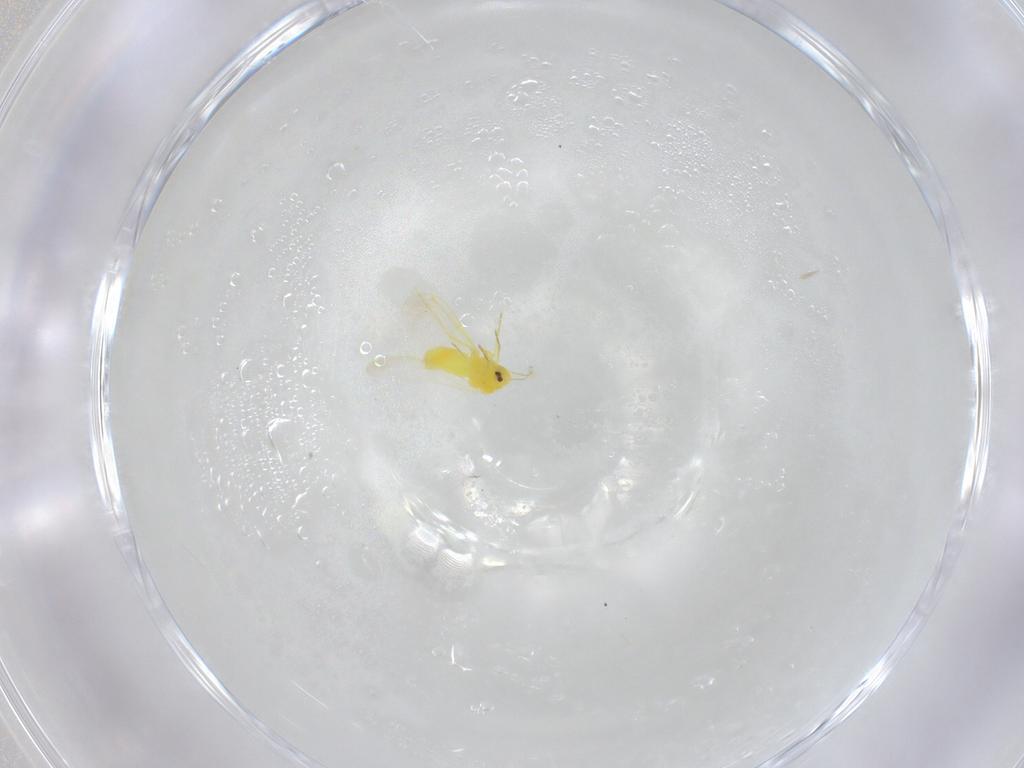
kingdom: Animalia
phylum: Arthropoda
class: Insecta
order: Hemiptera
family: Aleyrodidae
